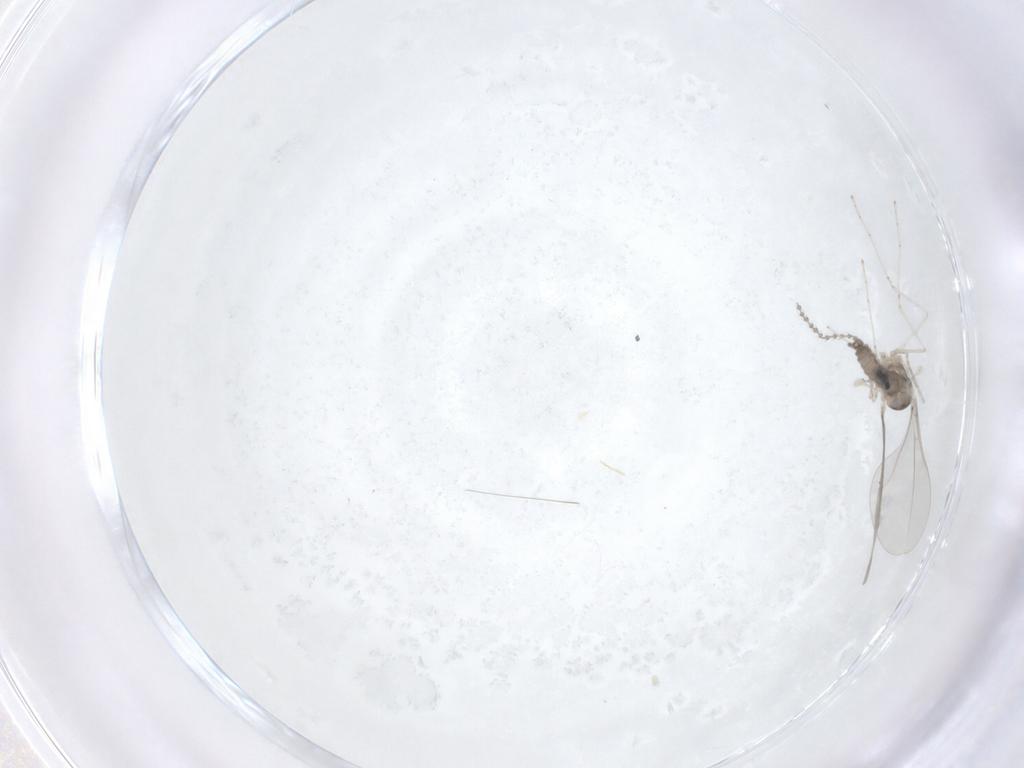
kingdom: Animalia
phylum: Arthropoda
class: Insecta
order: Diptera
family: Cecidomyiidae
